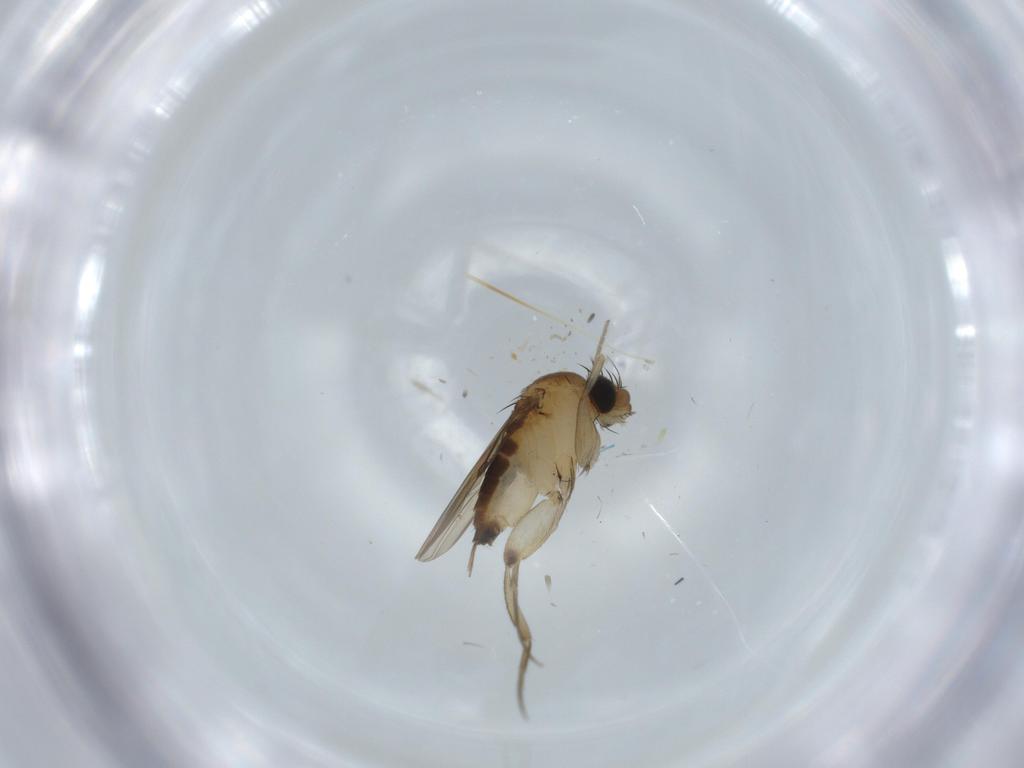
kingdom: Animalia
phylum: Arthropoda
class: Insecta
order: Diptera
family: Phoridae
